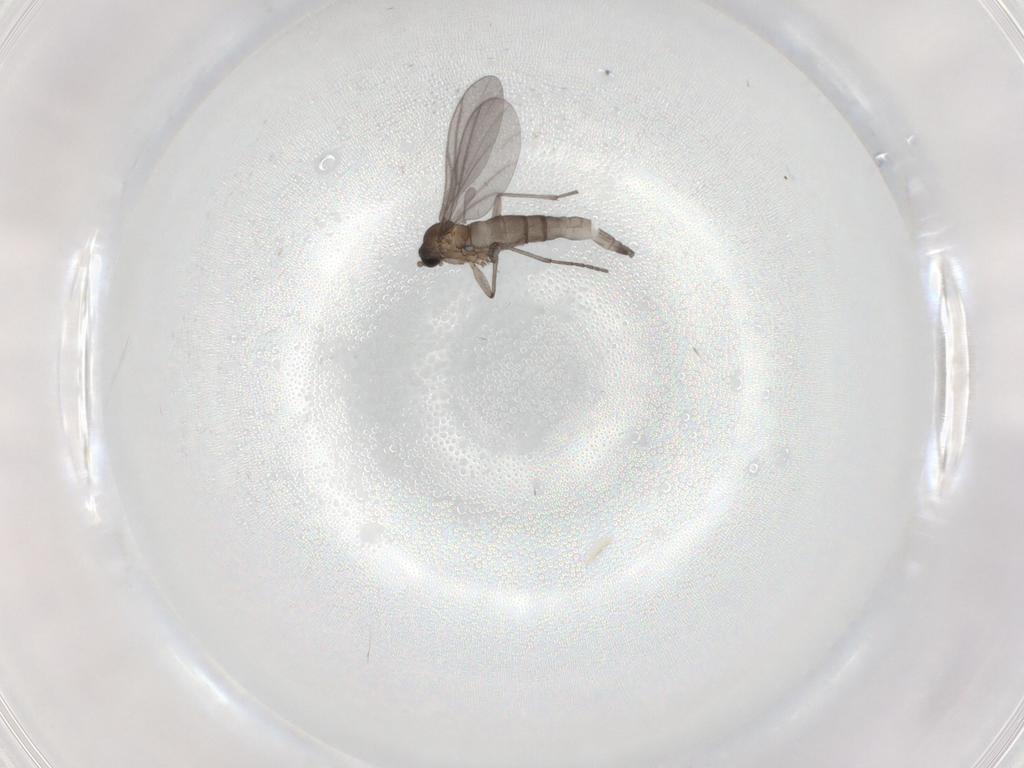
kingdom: Animalia
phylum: Arthropoda
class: Insecta
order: Diptera
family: Sciaridae
